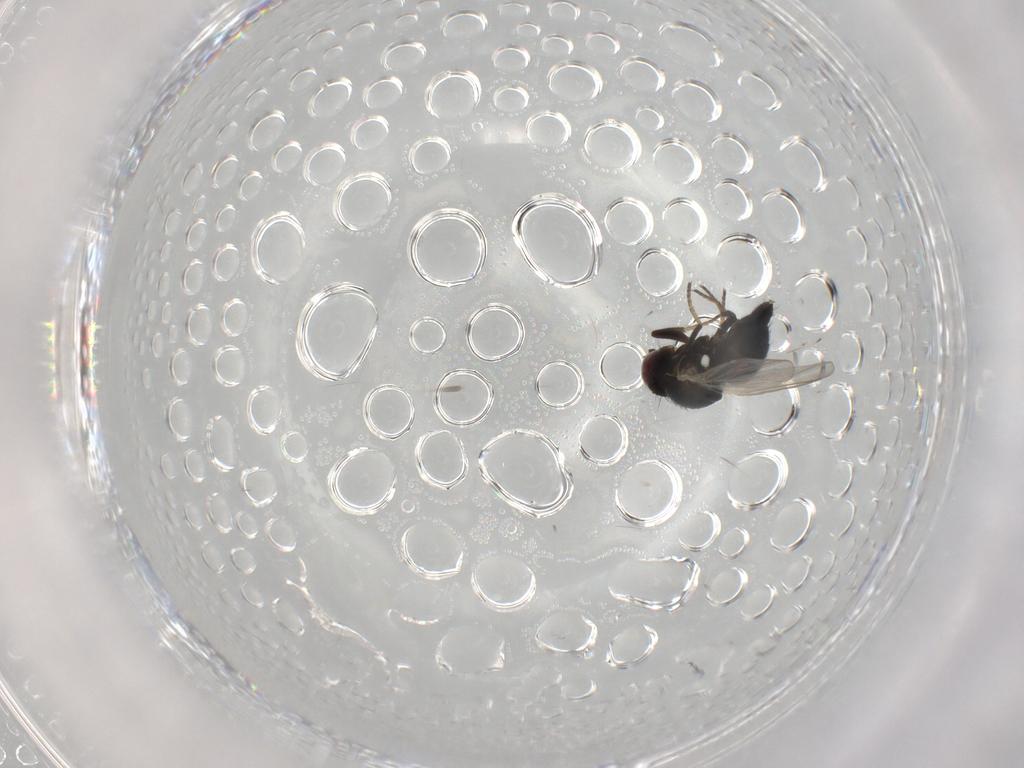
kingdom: Animalia
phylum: Arthropoda
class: Insecta
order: Diptera
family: Agromyzidae
